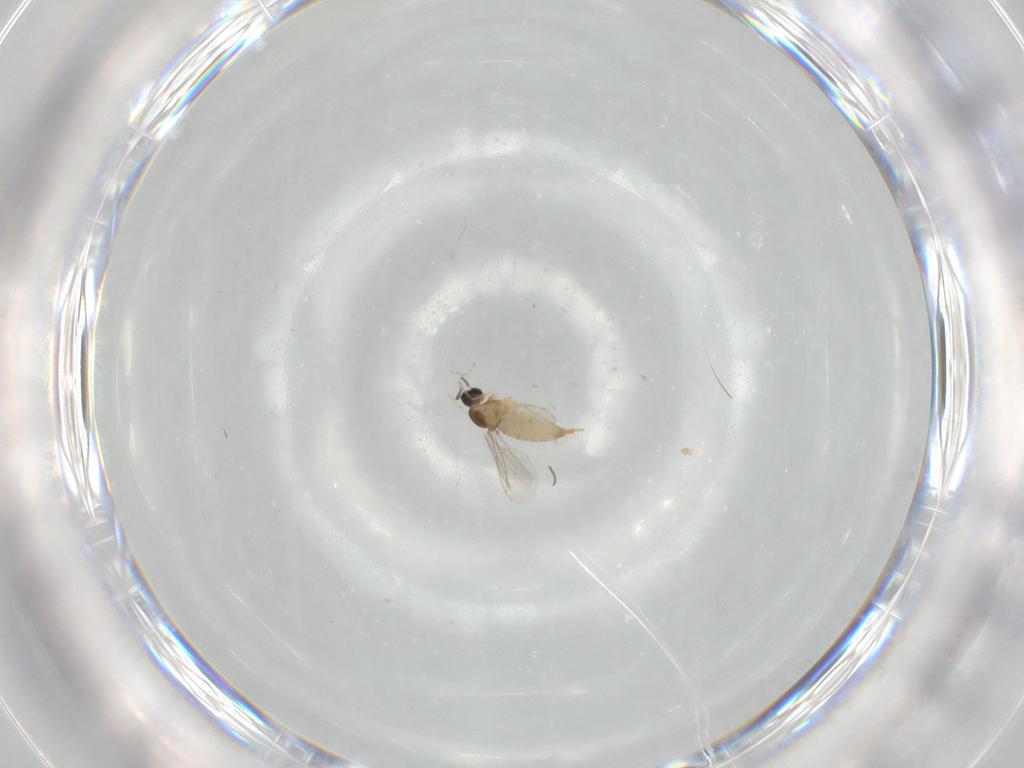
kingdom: Animalia
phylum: Arthropoda
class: Insecta
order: Diptera
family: Cecidomyiidae
